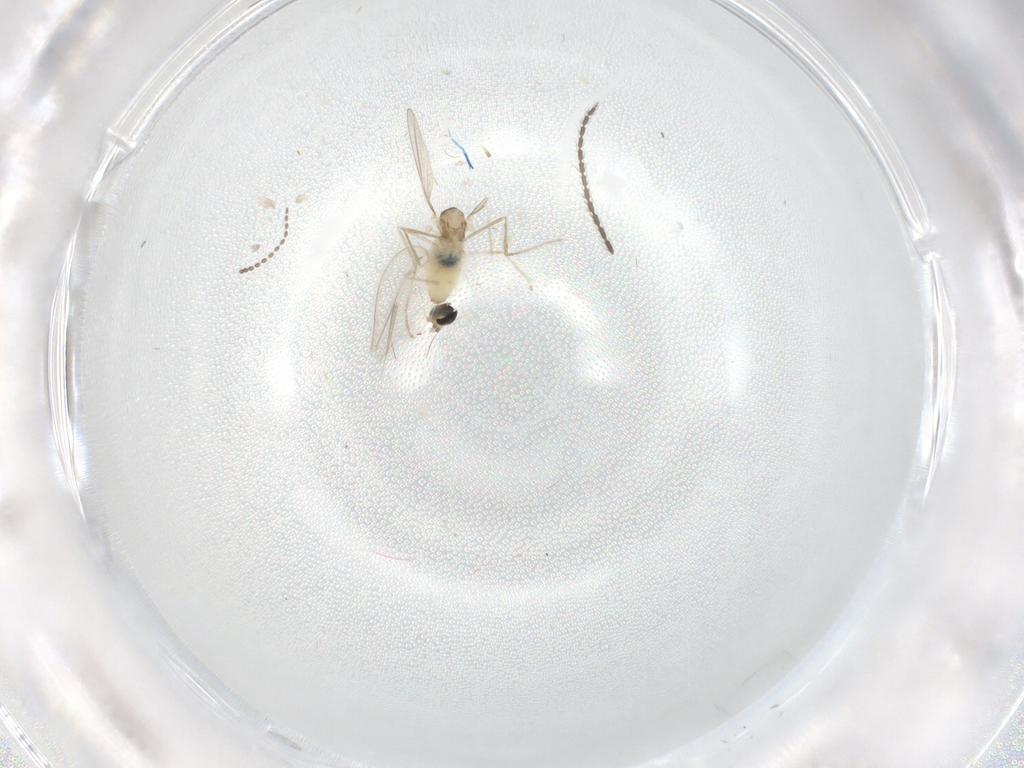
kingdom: Animalia
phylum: Arthropoda
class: Insecta
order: Diptera
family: Cecidomyiidae
